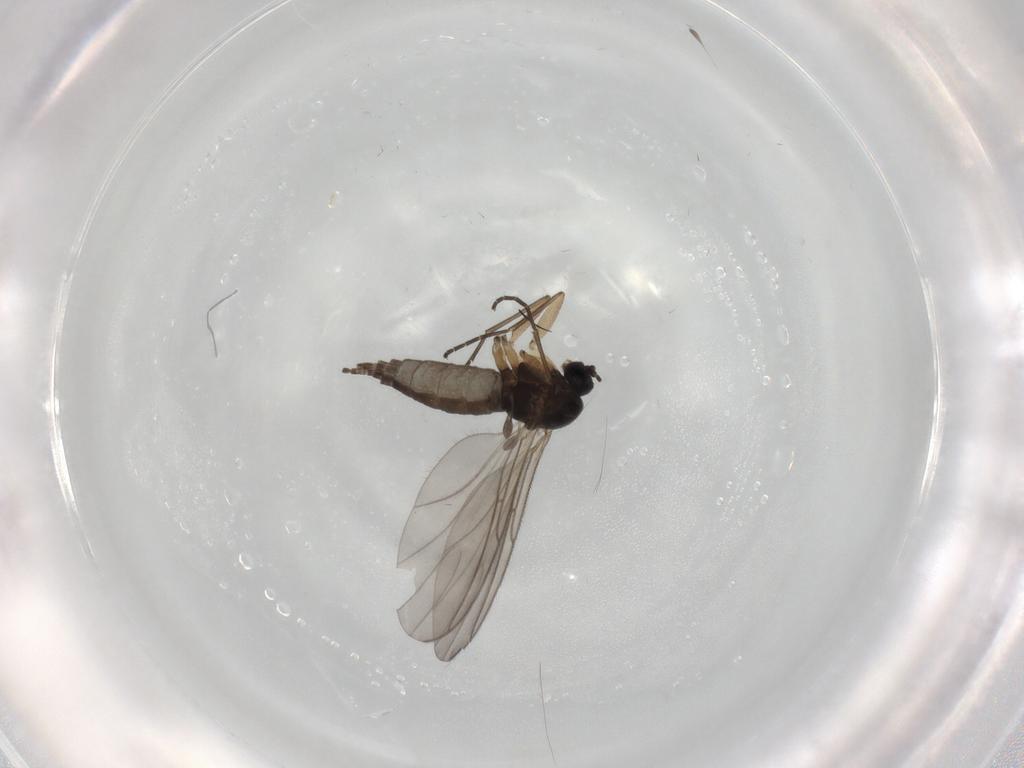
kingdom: Animalia
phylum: Arthropoda
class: Insecta
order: Diptera
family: Sciaridae
